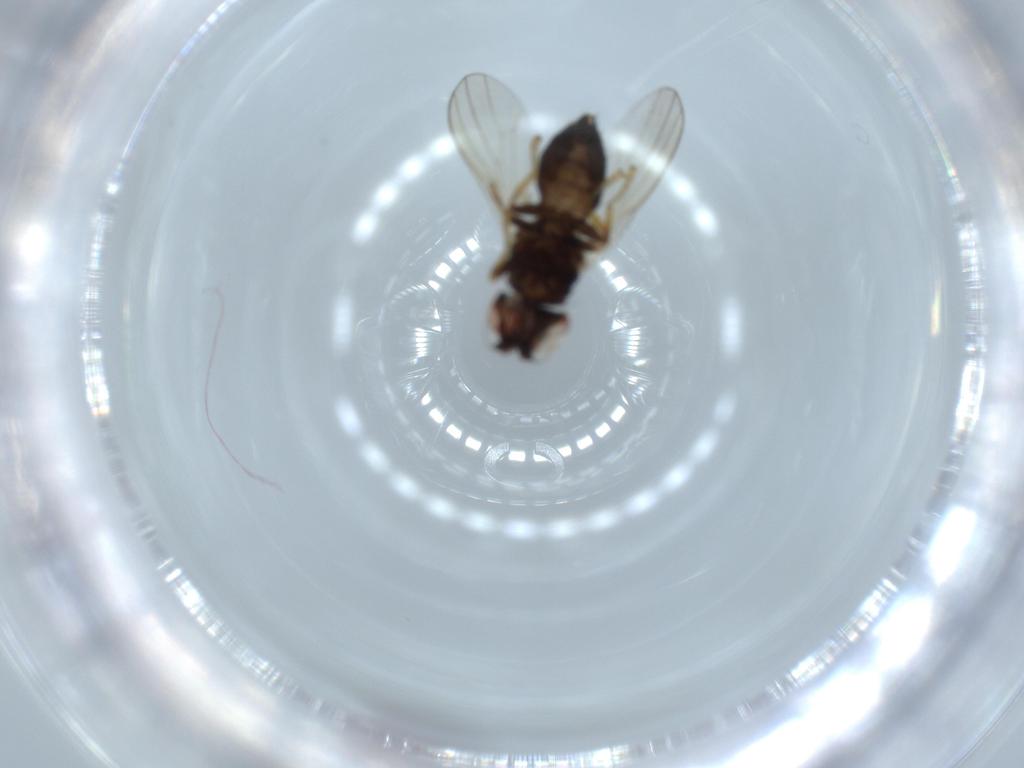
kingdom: Animalia
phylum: Arthropoda
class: Insecta
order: Diptera
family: Chamaemyiidae
